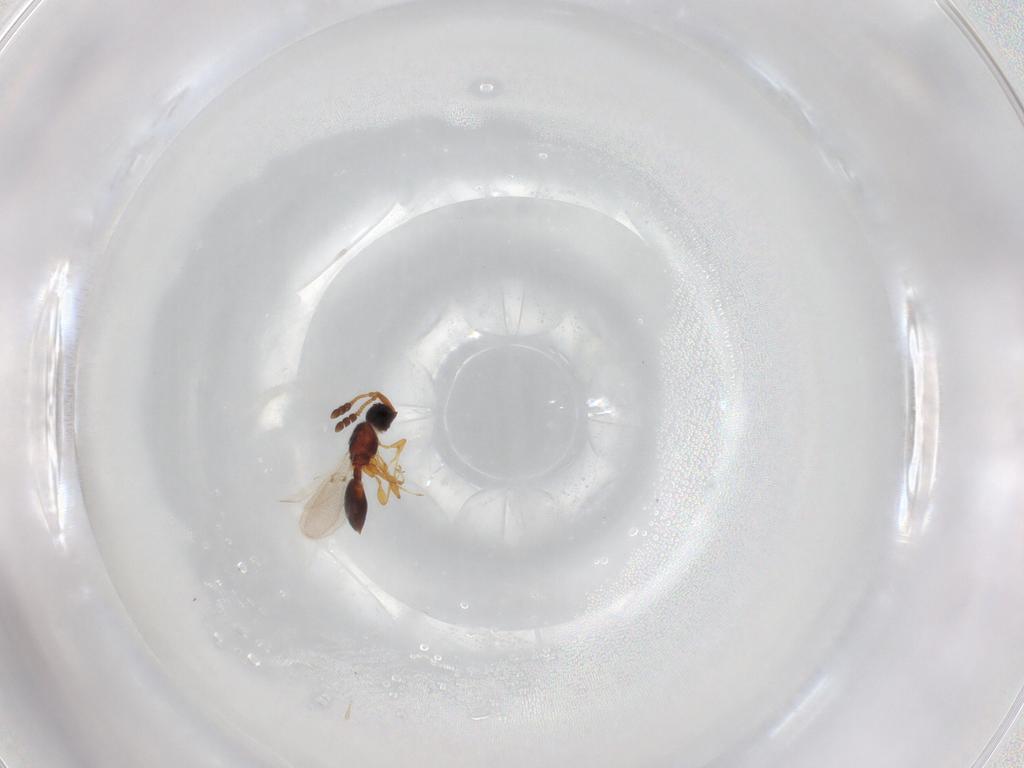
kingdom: Animalia
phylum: Arthropoda
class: Insecta
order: Hymenoptera
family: Diapriidae
